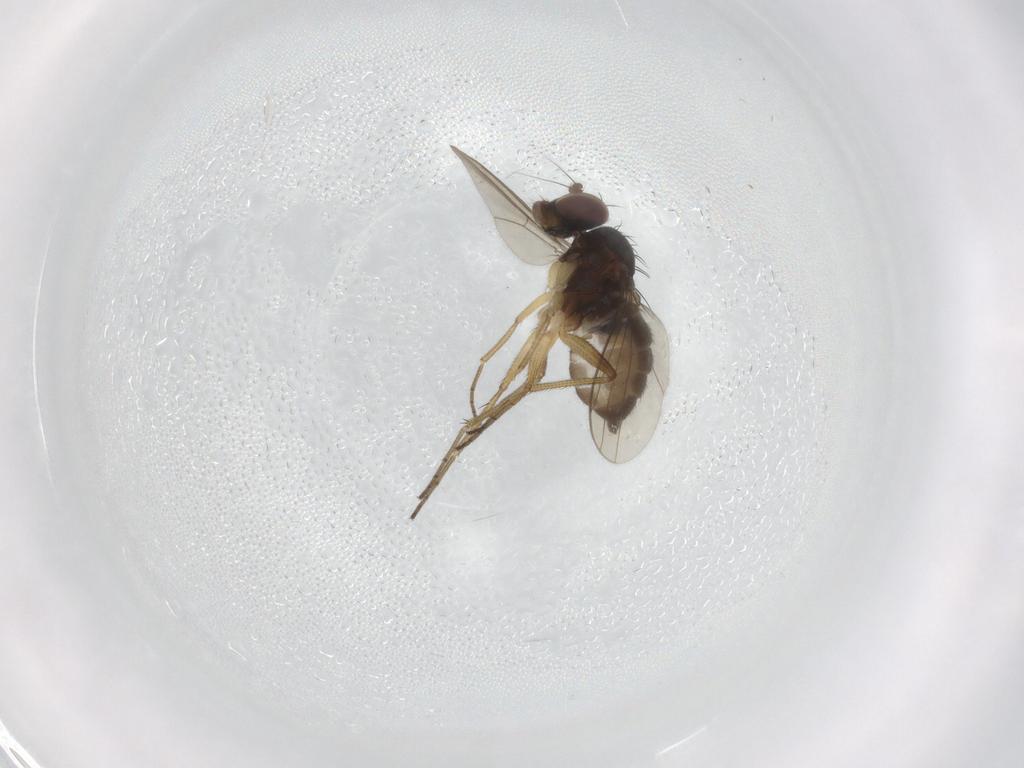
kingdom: Animalia
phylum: Arthropoda
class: Insecta
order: Diptera
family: Dolichopodidae
